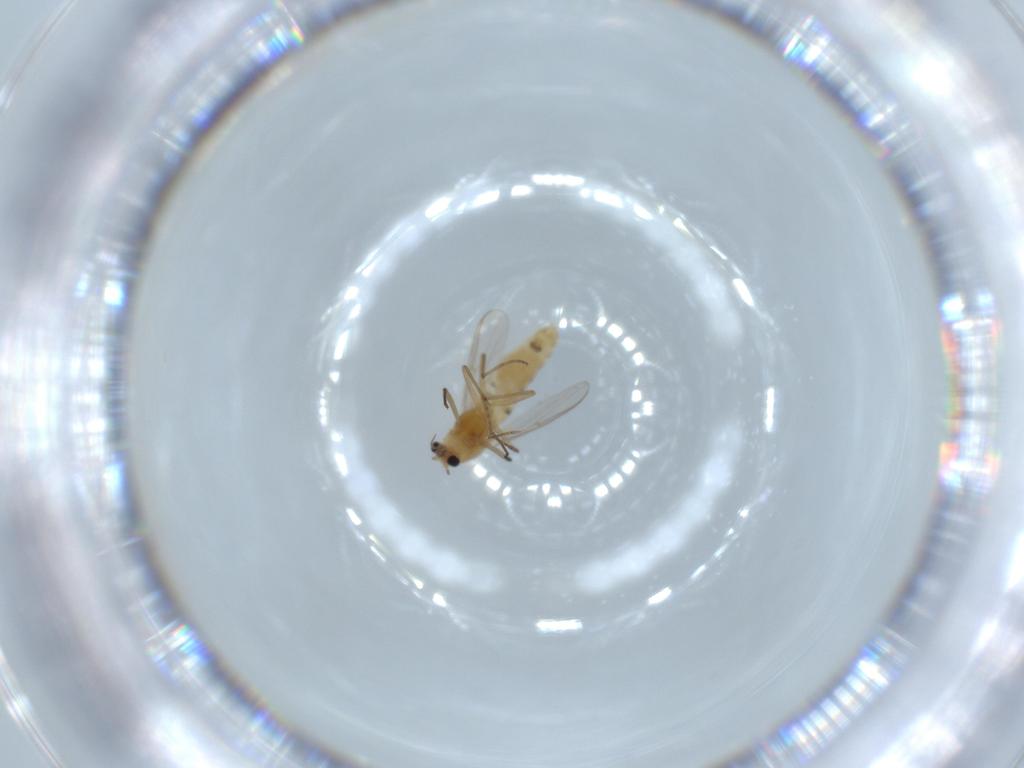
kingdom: Animalia
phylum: Arthropoda
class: Insecta
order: Diptera
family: Chironomidae
